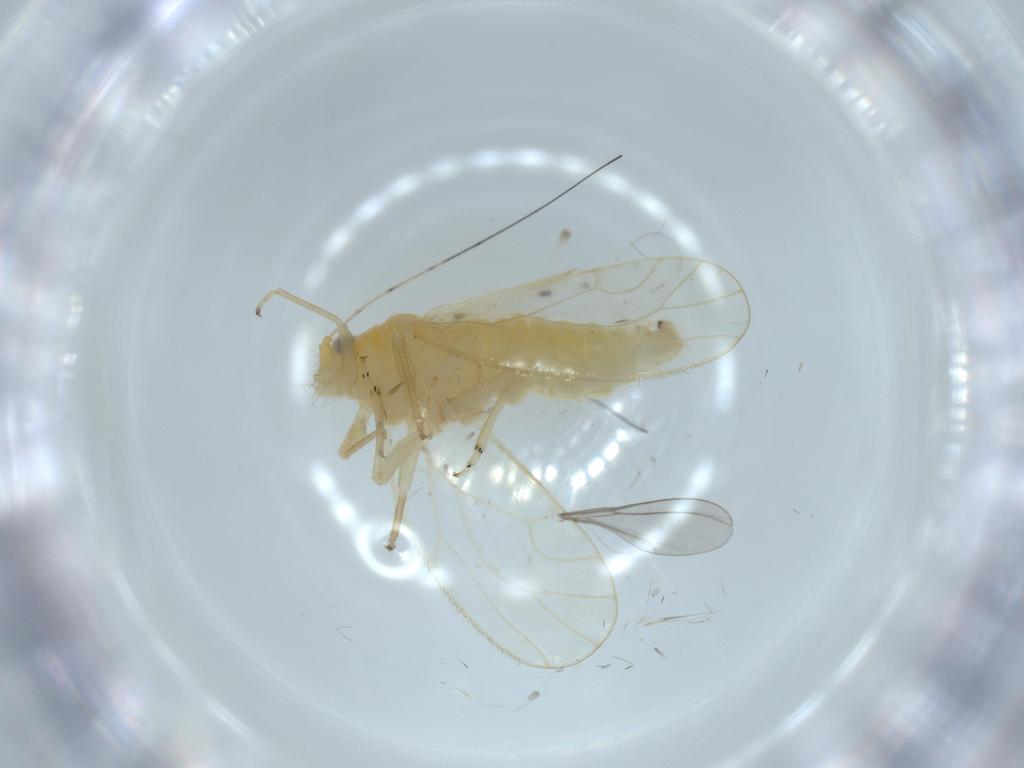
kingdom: Animalia
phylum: Arthropoda
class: Insecta
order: Hemiptera
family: Psyllidae
